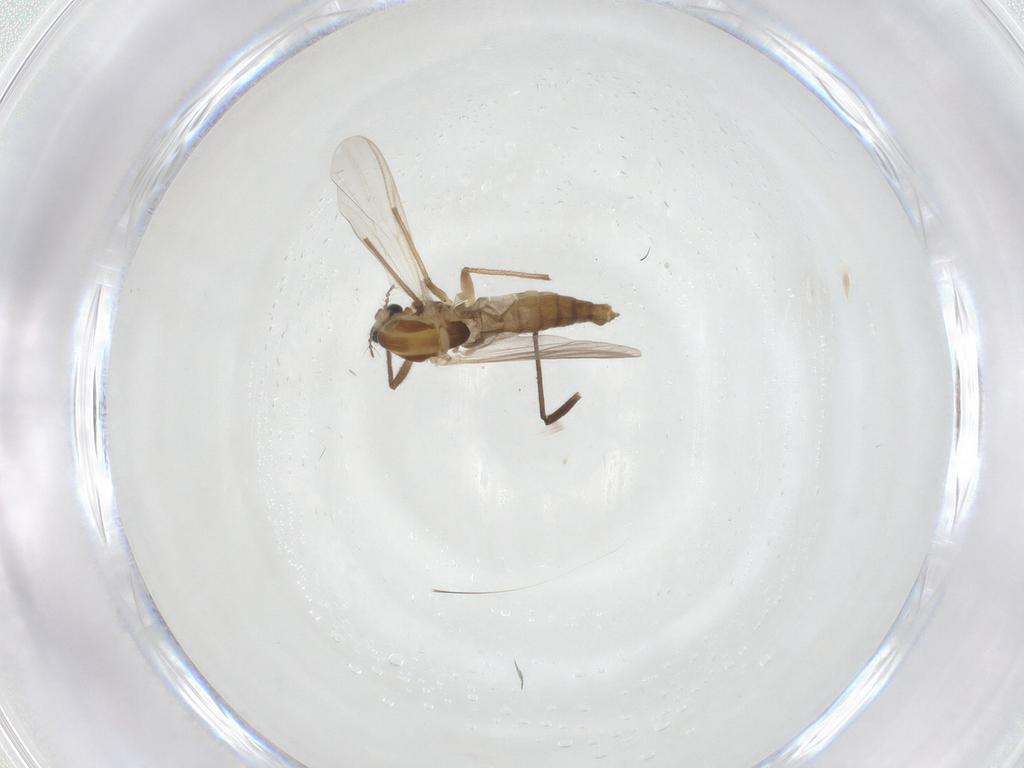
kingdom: Animalia
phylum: Arthropoda
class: Insecta
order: Diptera
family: Chironomidae
